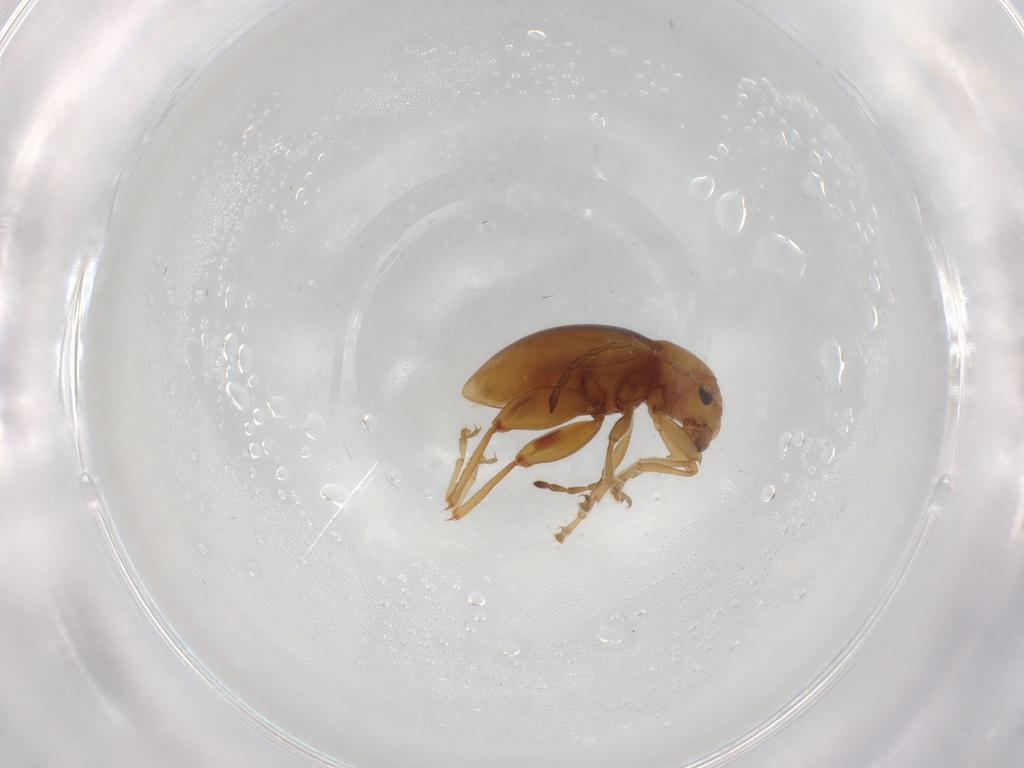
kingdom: Animalia
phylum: Arthropoda
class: Insecta
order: Coleoptera
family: Chrysomelidae
